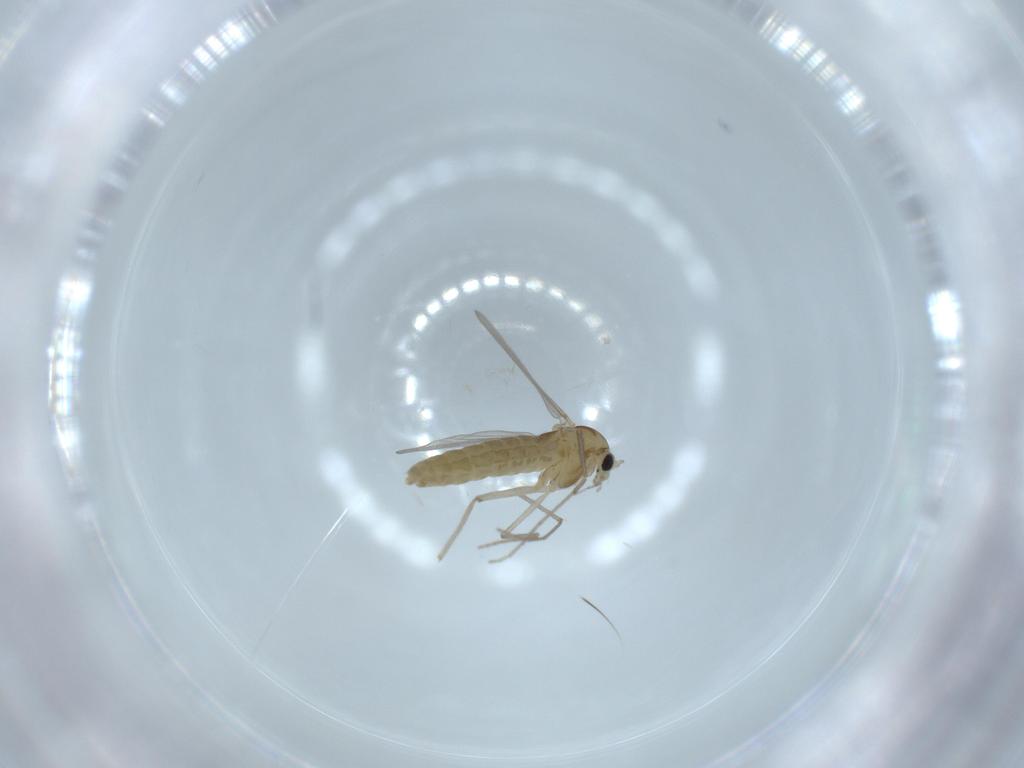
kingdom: Animalia
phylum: Arthropoda
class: Insecta
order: Diptera
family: Chironomidae
